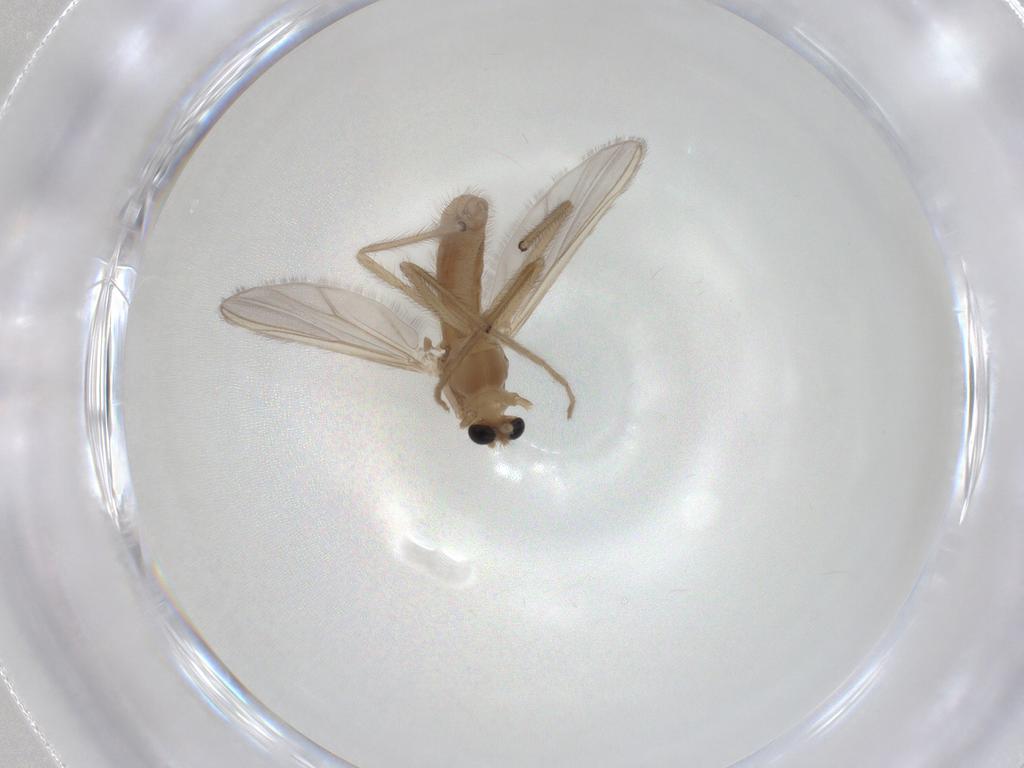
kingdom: Animalia
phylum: Arthropoda
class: Insecta
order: Diptera
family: Chironomidae
